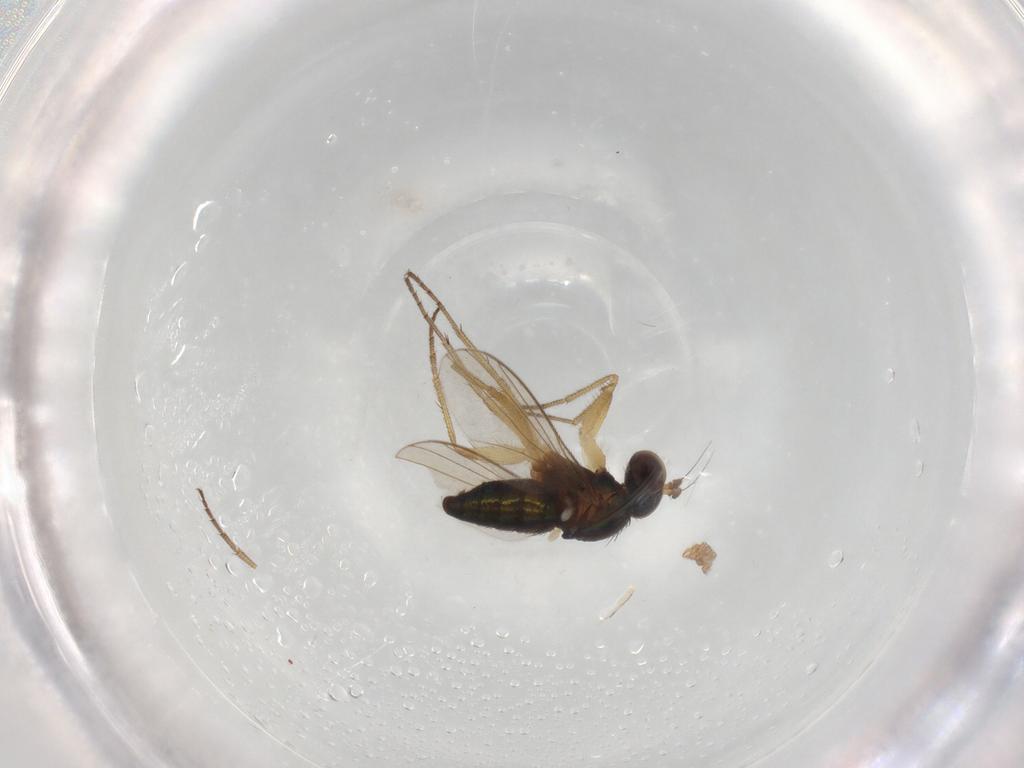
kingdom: Animalia
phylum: Arthropoda
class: Insecta
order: Diptera
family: Dolichopodidae
